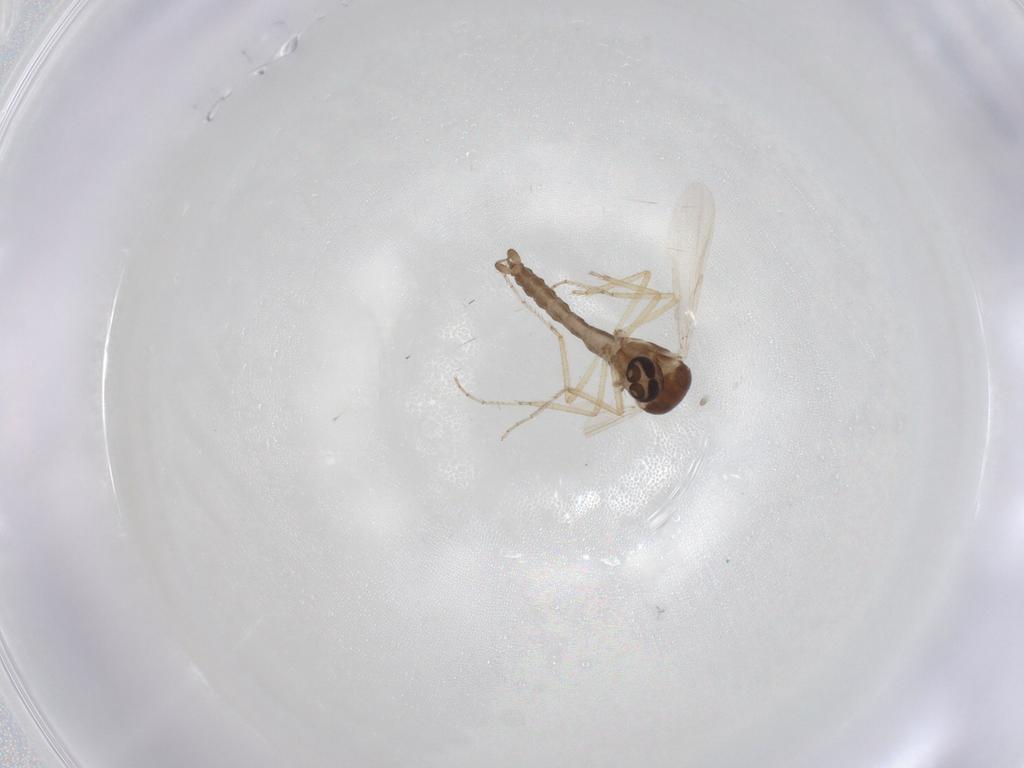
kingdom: Animalia
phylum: Arthropoda
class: Insecta
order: Diptera
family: Ceratopogonidae
